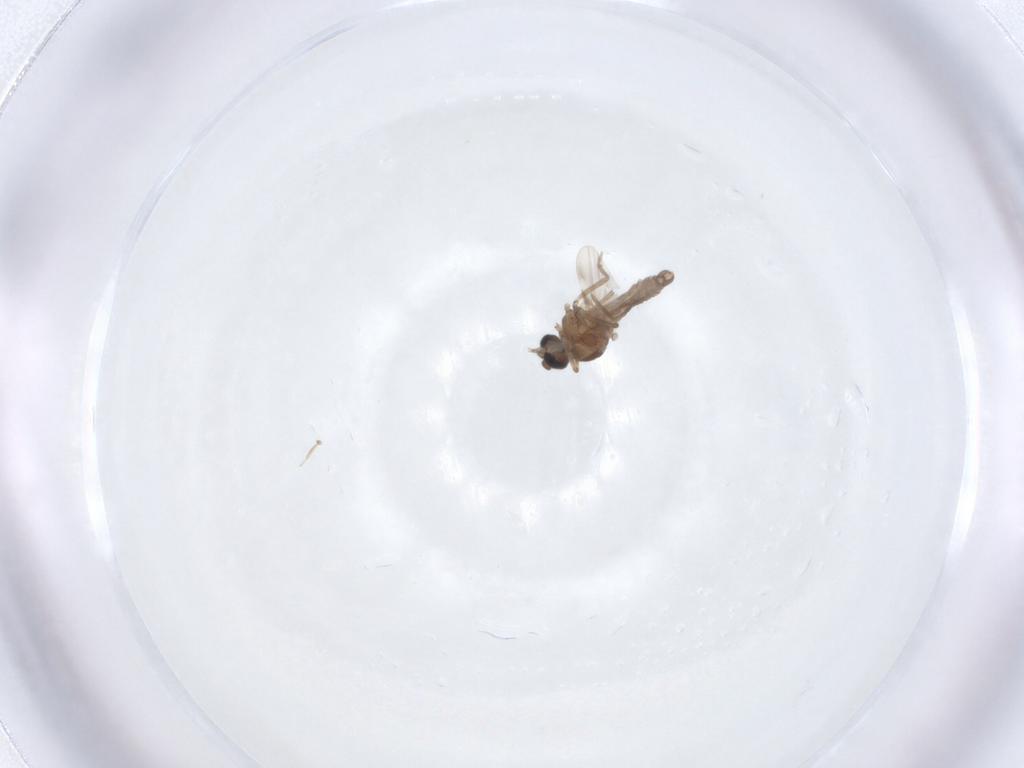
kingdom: Animalia
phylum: Arthropoda
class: Insecta
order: Diptera
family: Ceratopogonidae
